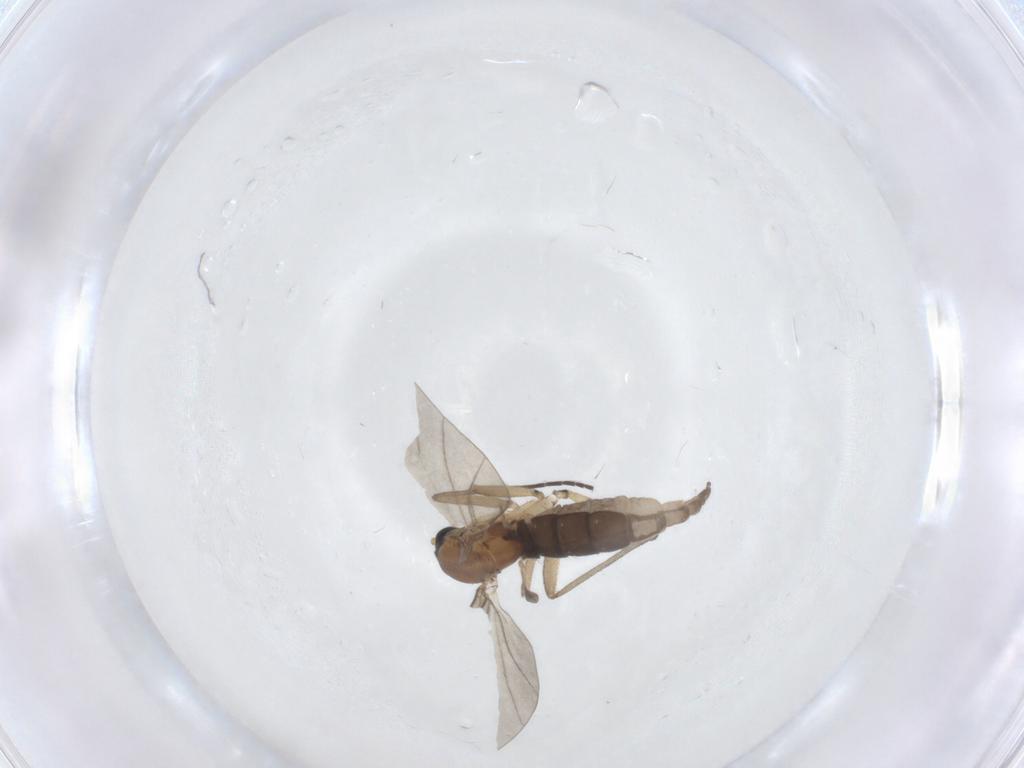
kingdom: Animalia
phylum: Arthropoda
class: Insecta
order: Diptera
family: Sciaridae
